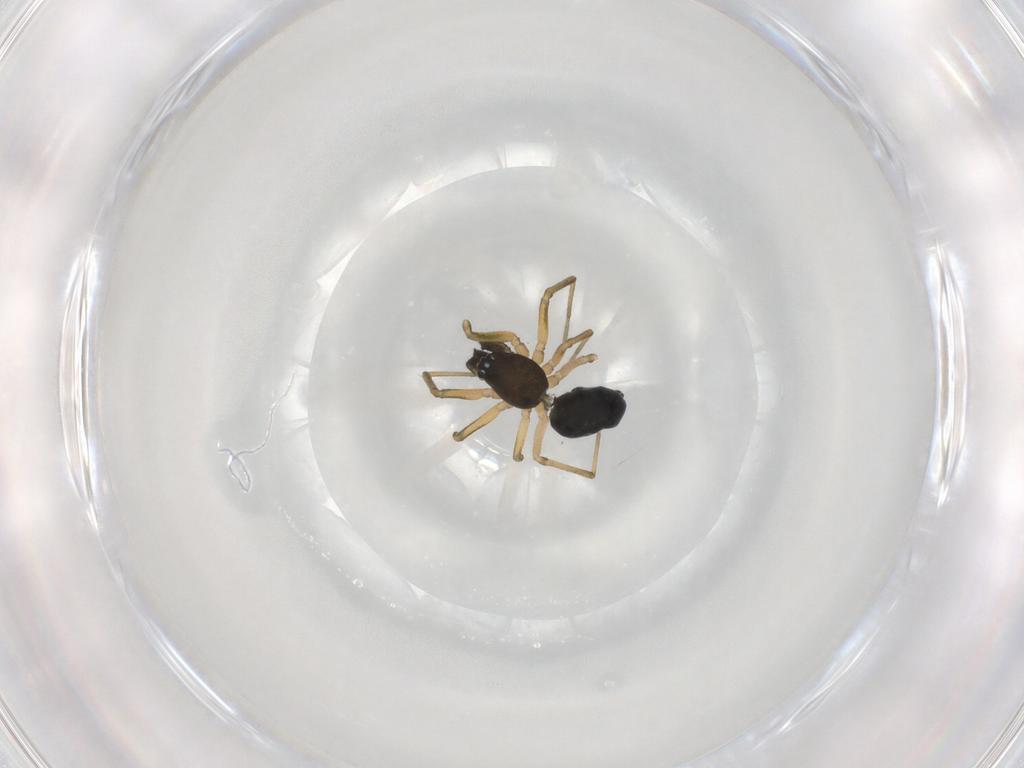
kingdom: Animalia
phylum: Arthropoda
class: Arachnida
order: Araneae
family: Linyphiidae
